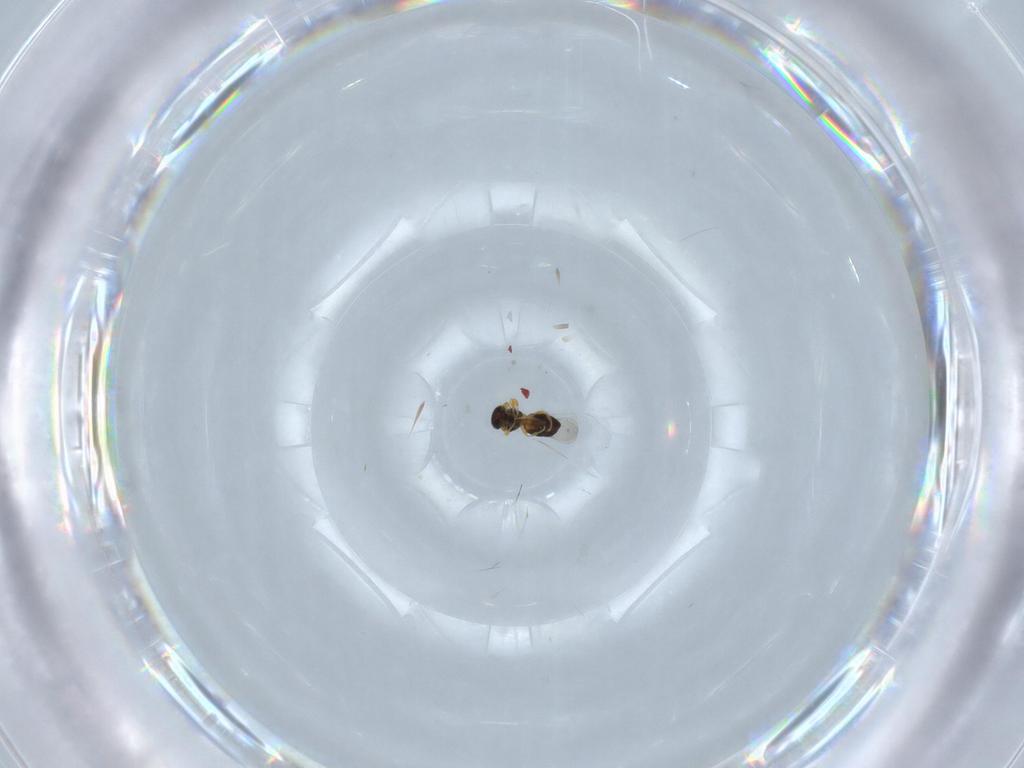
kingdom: Animalia
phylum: Arthropoda
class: Insecta
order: Hymenoptera
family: Platygastridae
